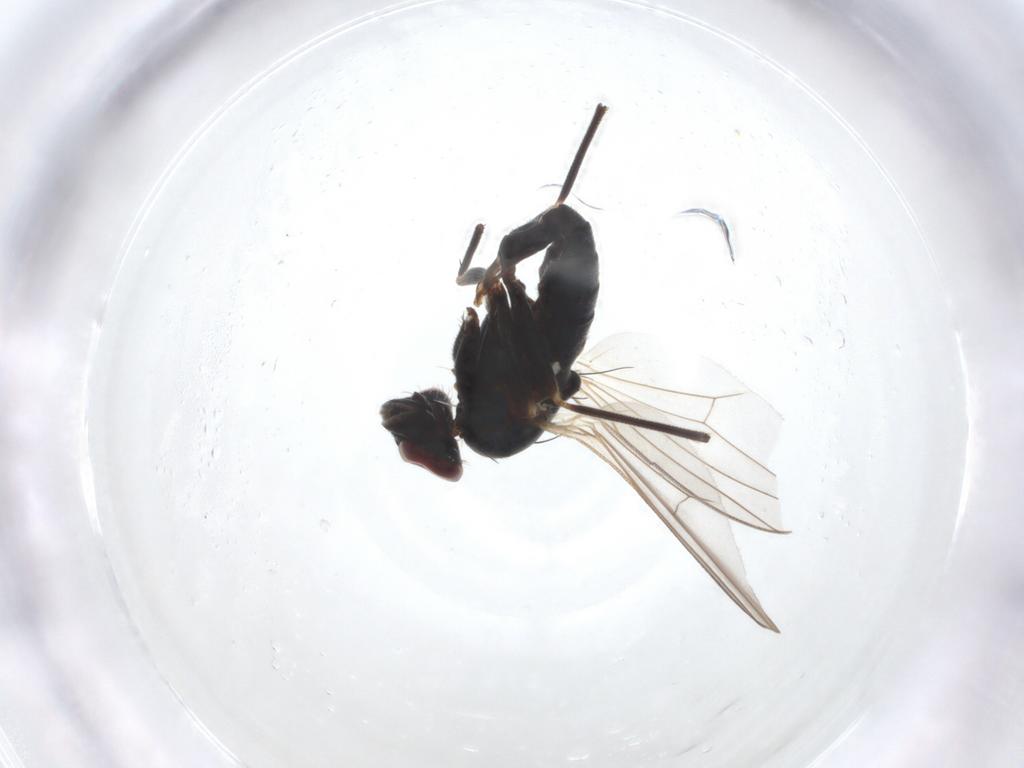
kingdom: Animalia
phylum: Arthropoda
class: Insecta
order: Diptera
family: Dolichopodidae
